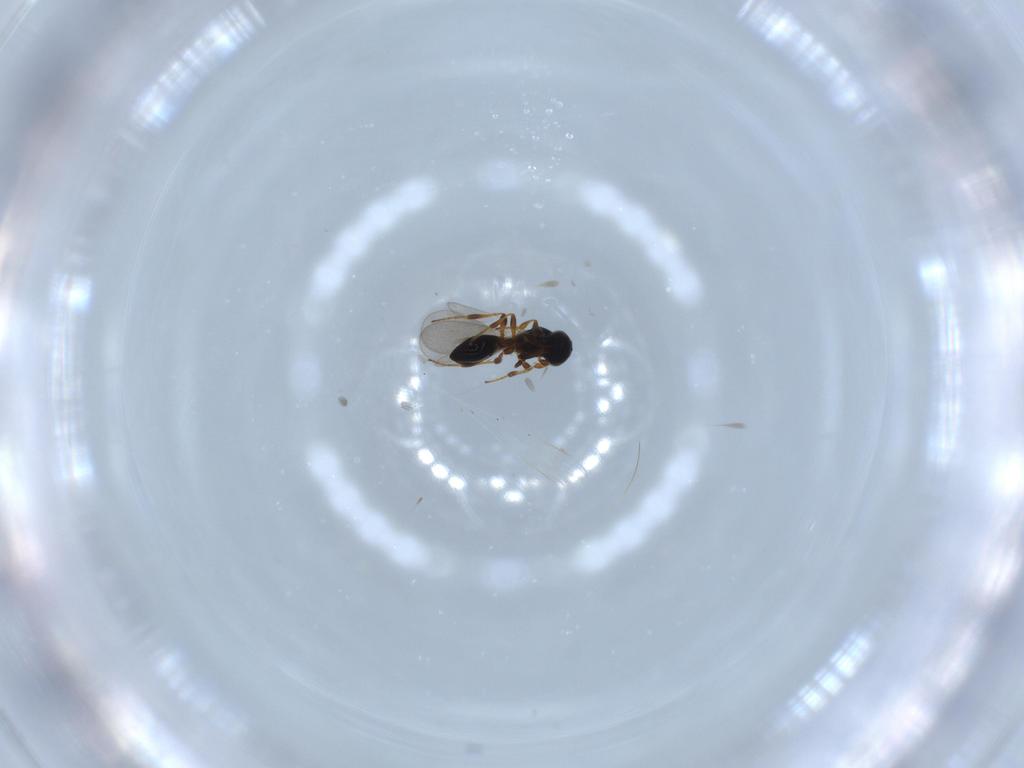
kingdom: Animalia
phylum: Arthropoda
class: Insecta
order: Hymenoptera
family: Platygastridae
